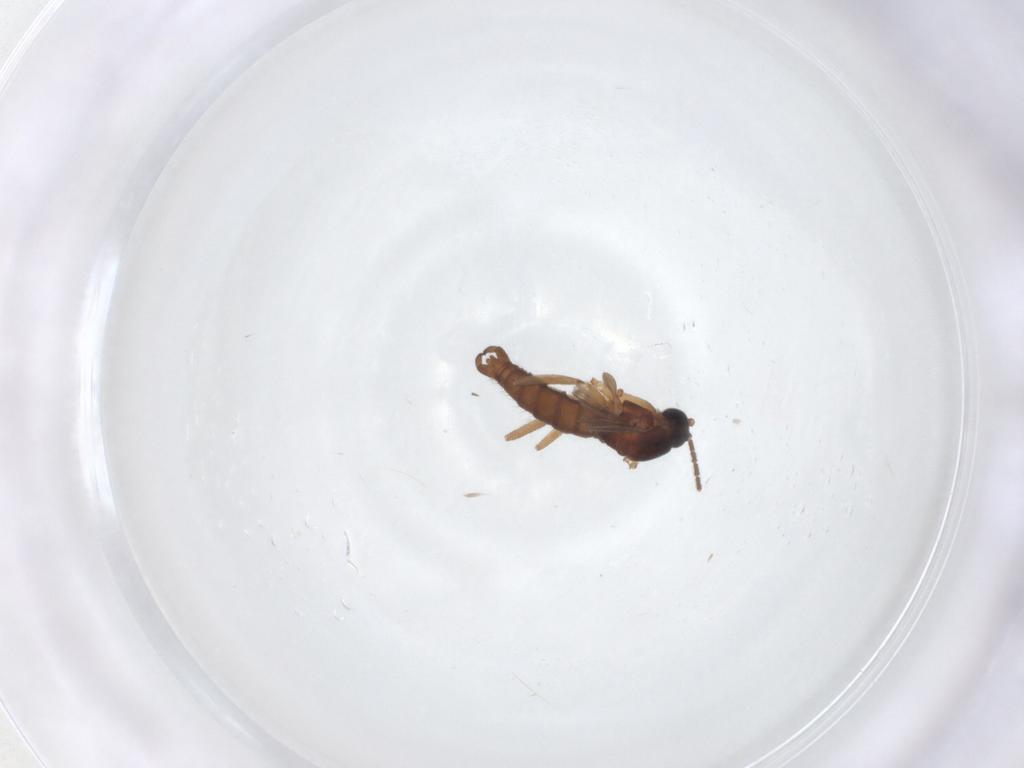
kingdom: Animalia
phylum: Arthropoda
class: Insecta
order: Diptera
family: Sciaridae
